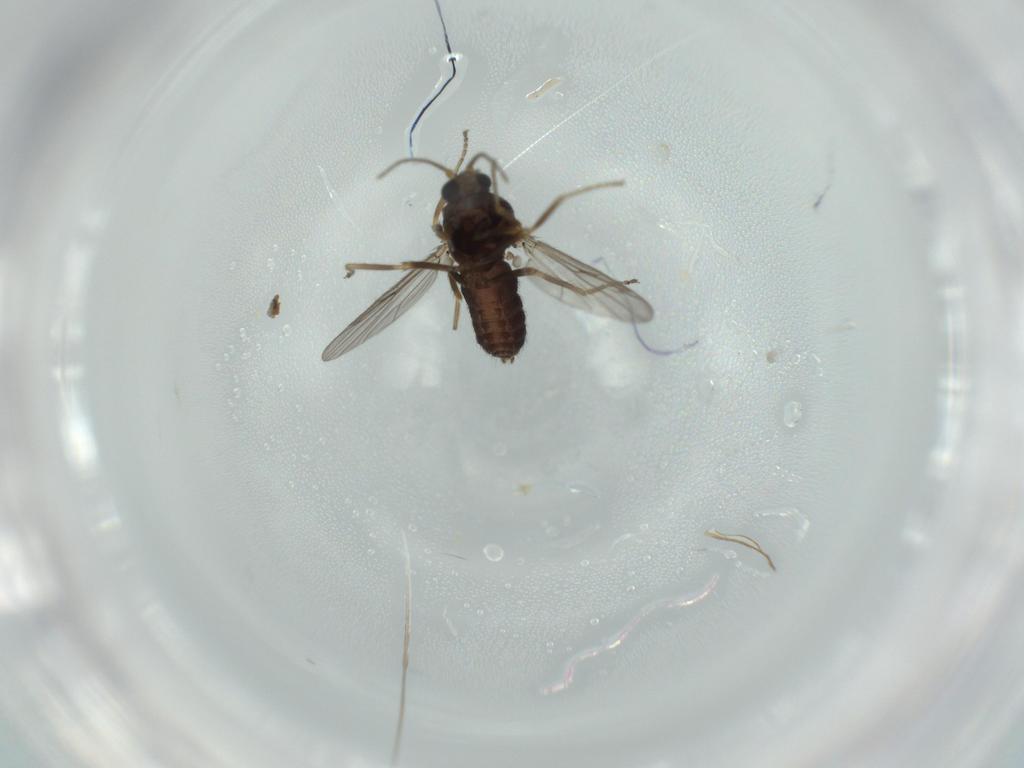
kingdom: Animalia
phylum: Arthropoda
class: Insecta
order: Diptera
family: Ceratopogonidae
